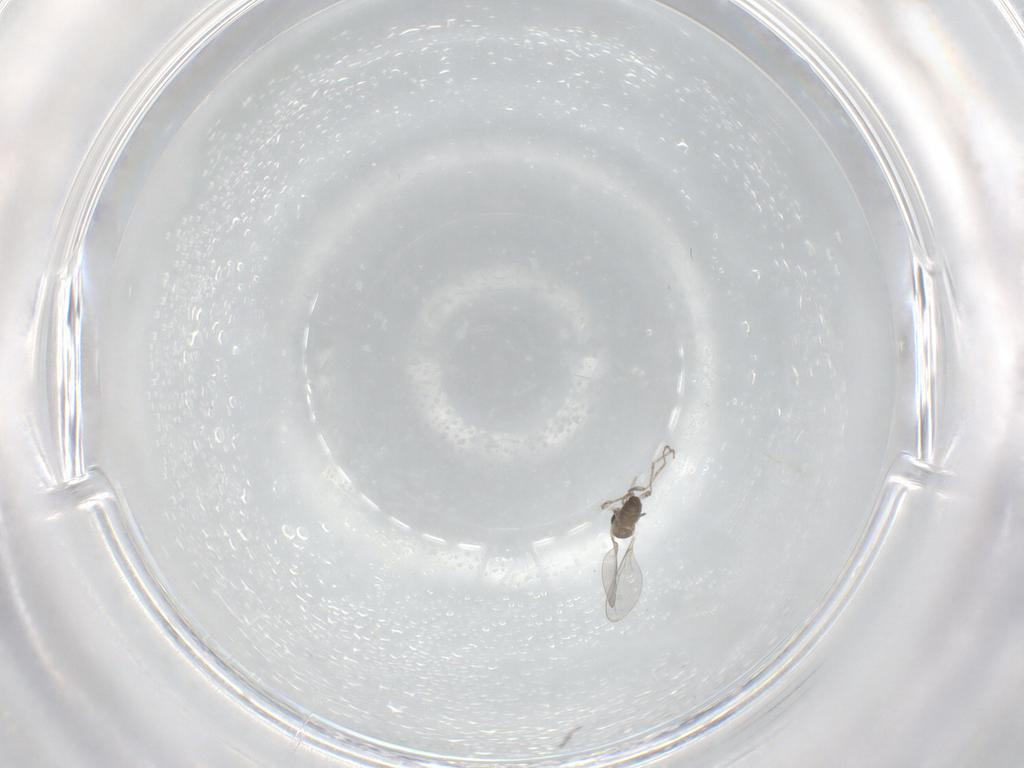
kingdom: Animalia
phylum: Arthropoda
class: Insecta
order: Diptera
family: Cecidomyiidae
